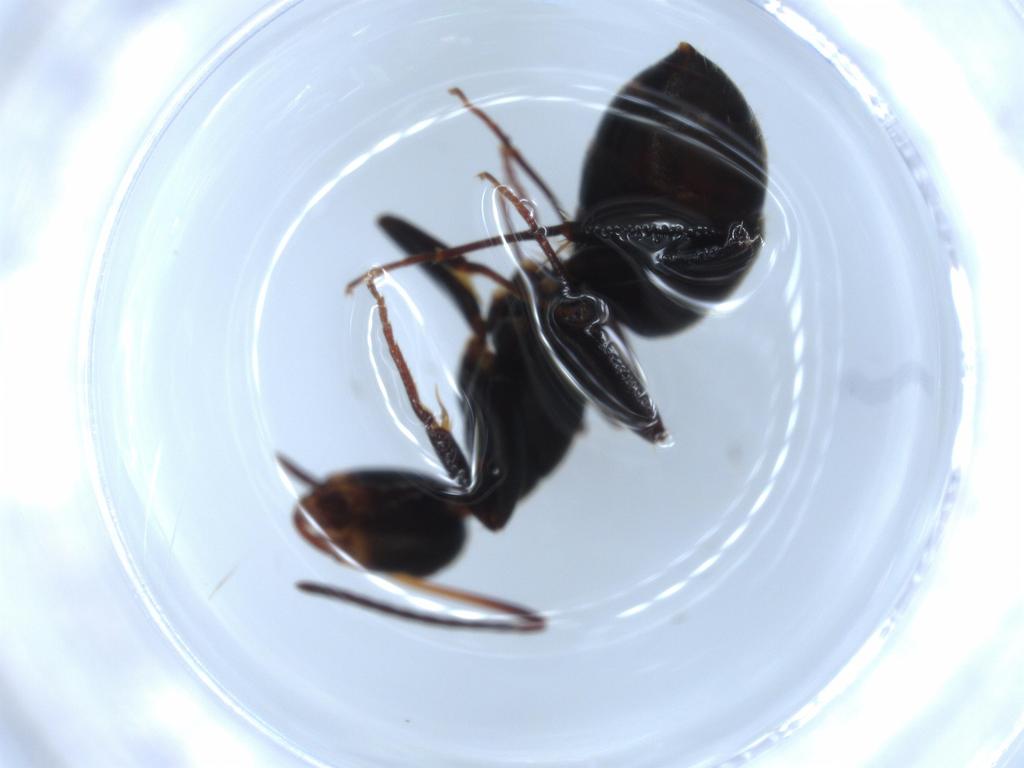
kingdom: Animalia
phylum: Arthropoda
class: Insecta
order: Hymenoptera
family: Formicidae
